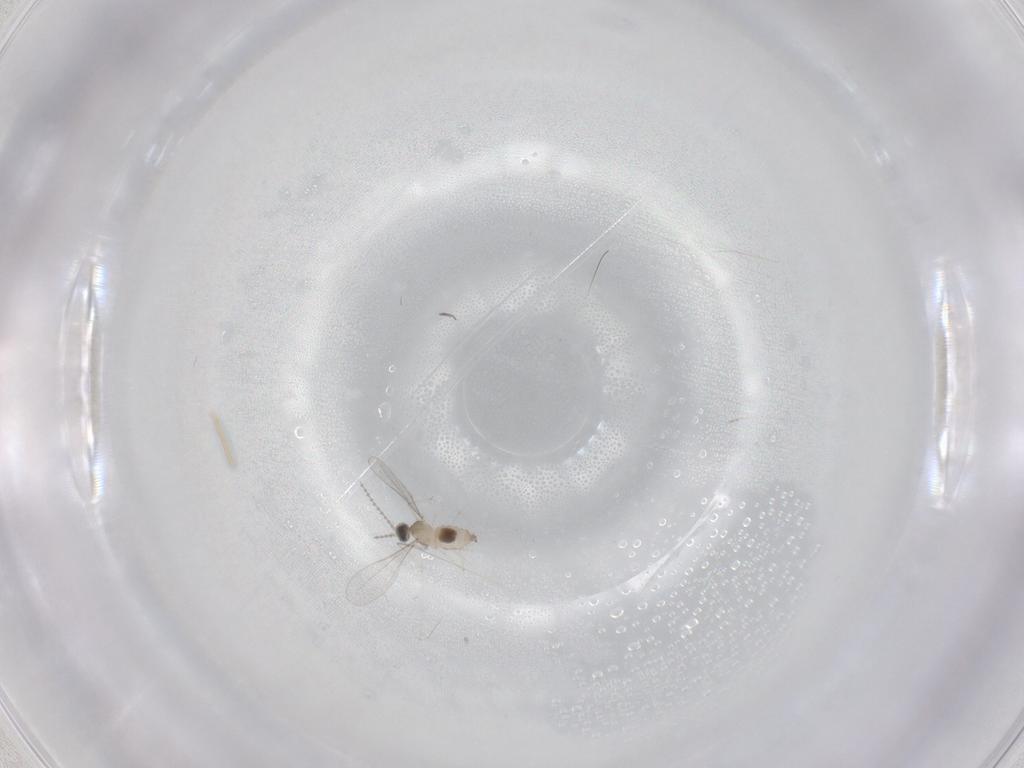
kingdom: Animalia
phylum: Arthropoda
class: Insecta
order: Diptera
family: Cecidomyiidae
